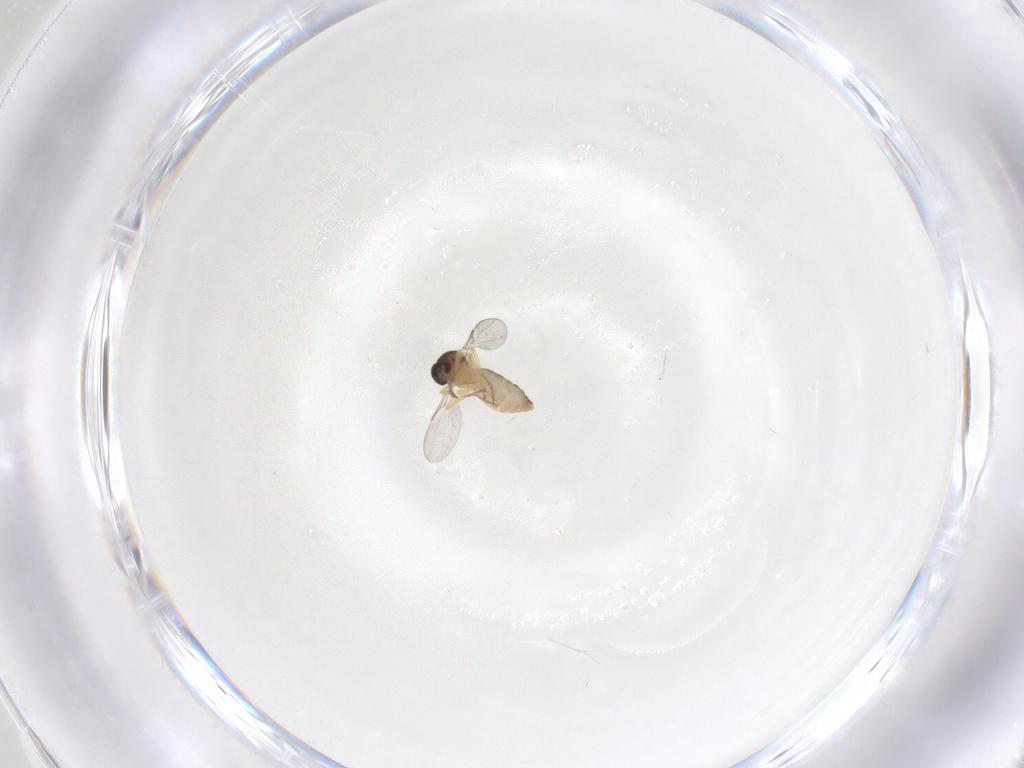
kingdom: Animalia
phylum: Arthropoda
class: Insecta
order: Diptera
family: Ceratopogonidae
